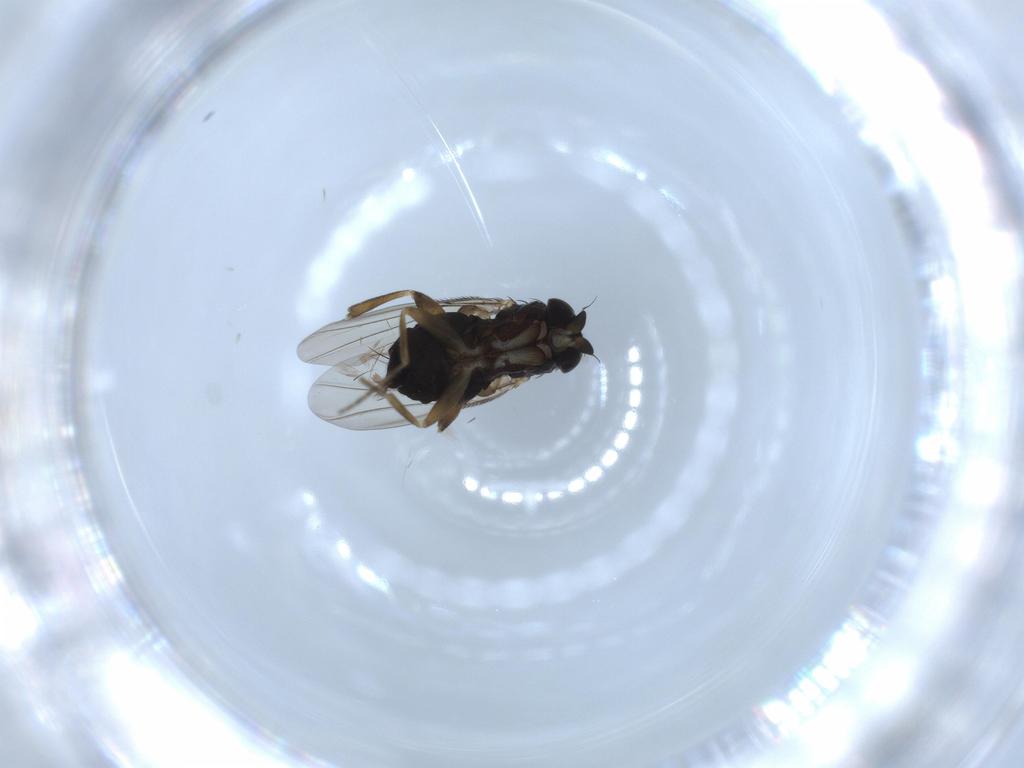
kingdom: Animalia
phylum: Arthropoda
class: Insecta
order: Diptera
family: Phoridae
